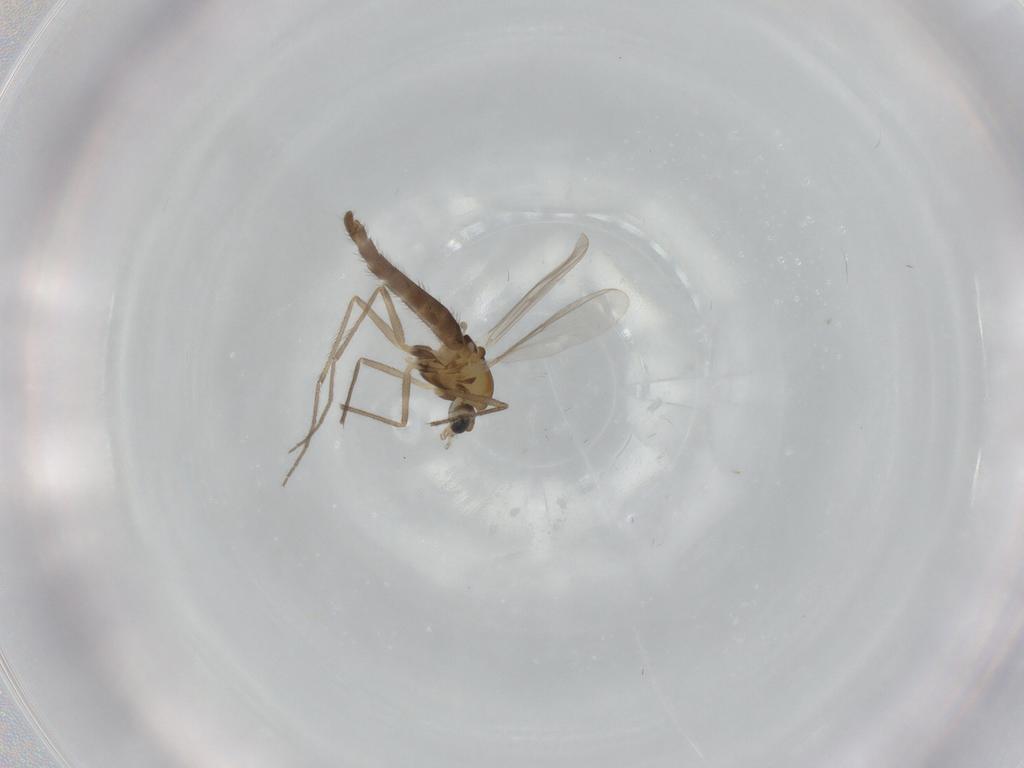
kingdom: Animalia
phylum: Arthropoda
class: Insecta
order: Diptera
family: Chironomidae
